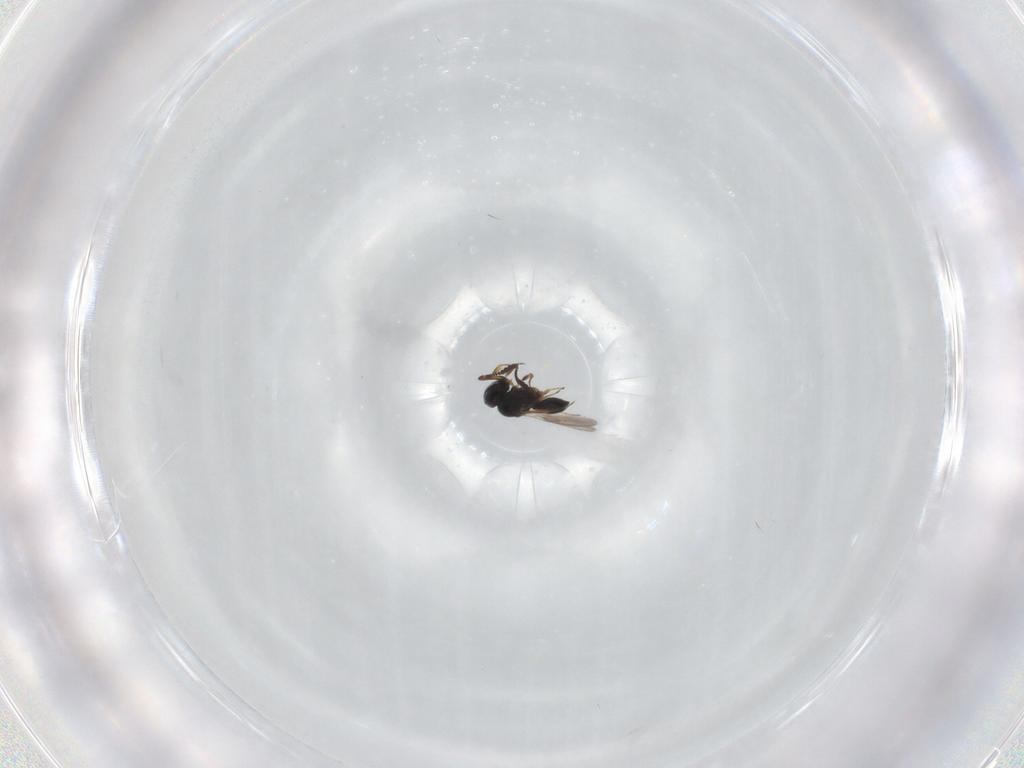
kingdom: Animalia
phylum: Arthropoda
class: Insecta
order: Hymenoptera
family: Scelionidae
